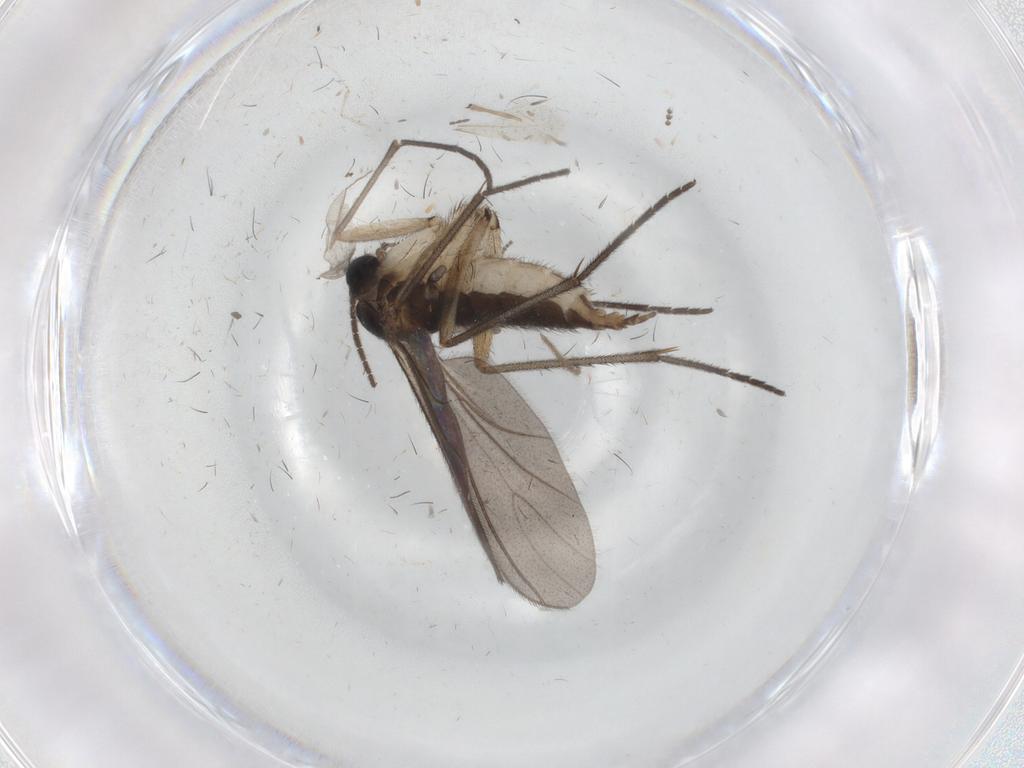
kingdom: Animalia
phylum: Arthropoda
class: Insecta
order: Diptera
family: Sciaridae
